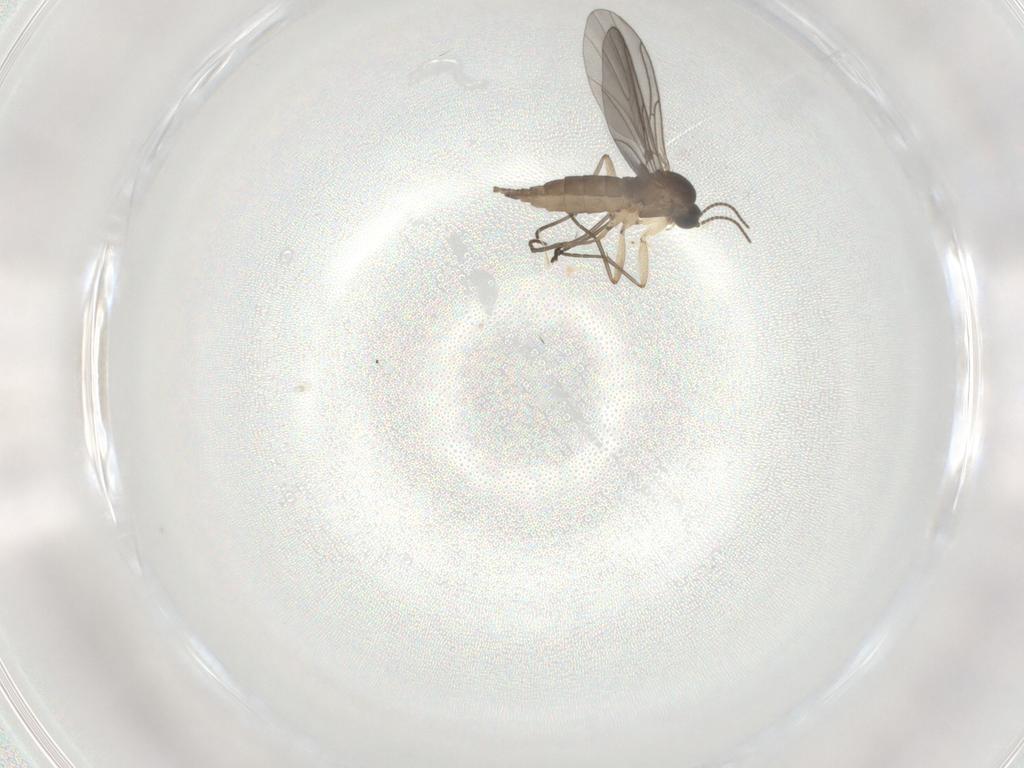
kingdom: Animalia
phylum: Arthropoda
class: Insecta
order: Diptera
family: Sciaridae
